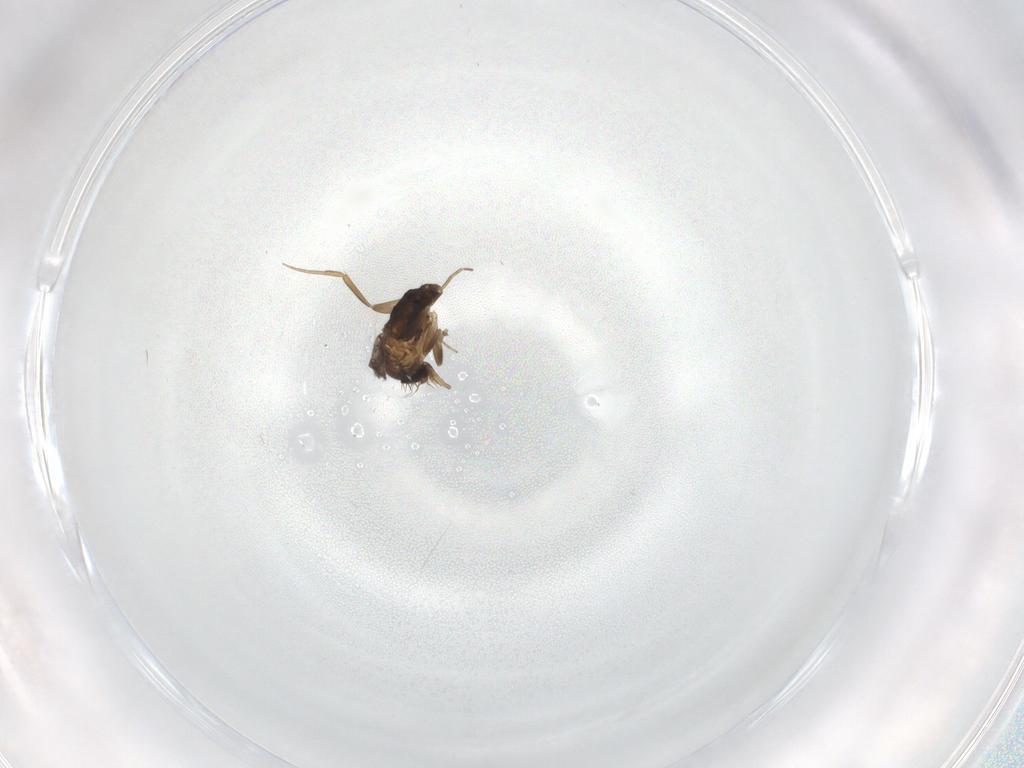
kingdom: Animalia
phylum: Arthropoda
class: Insecta
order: Diptera
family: Phoridae
